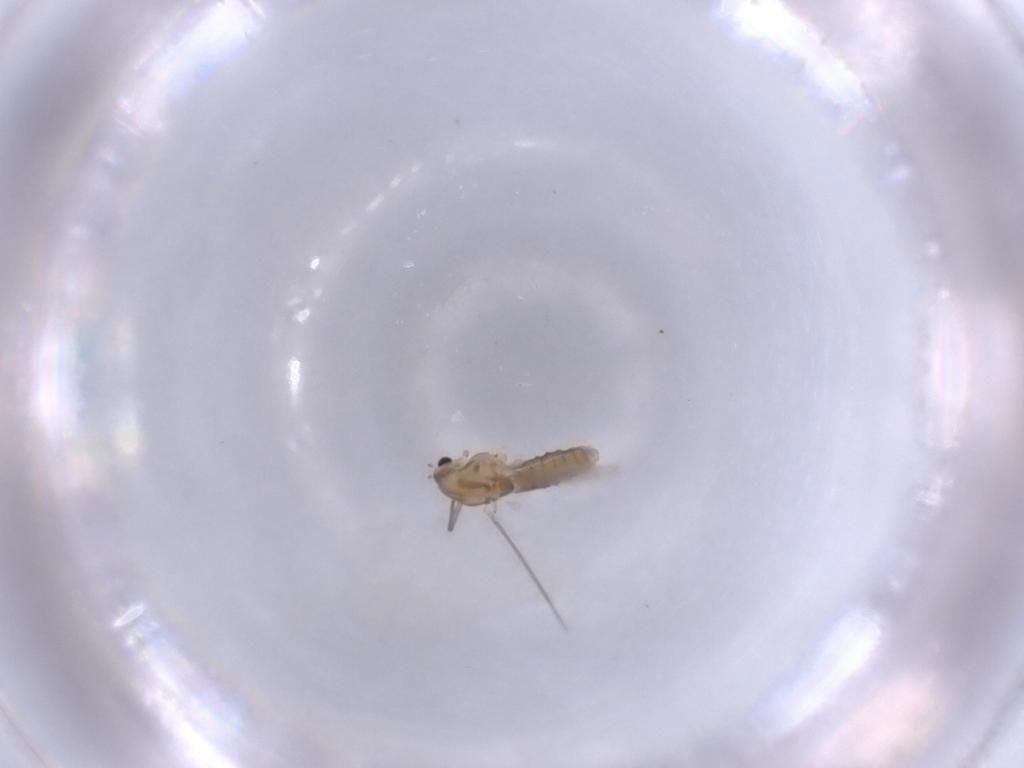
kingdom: Animalia
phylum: Arthropoda
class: Insecta
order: Diptera
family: Chironomidae
